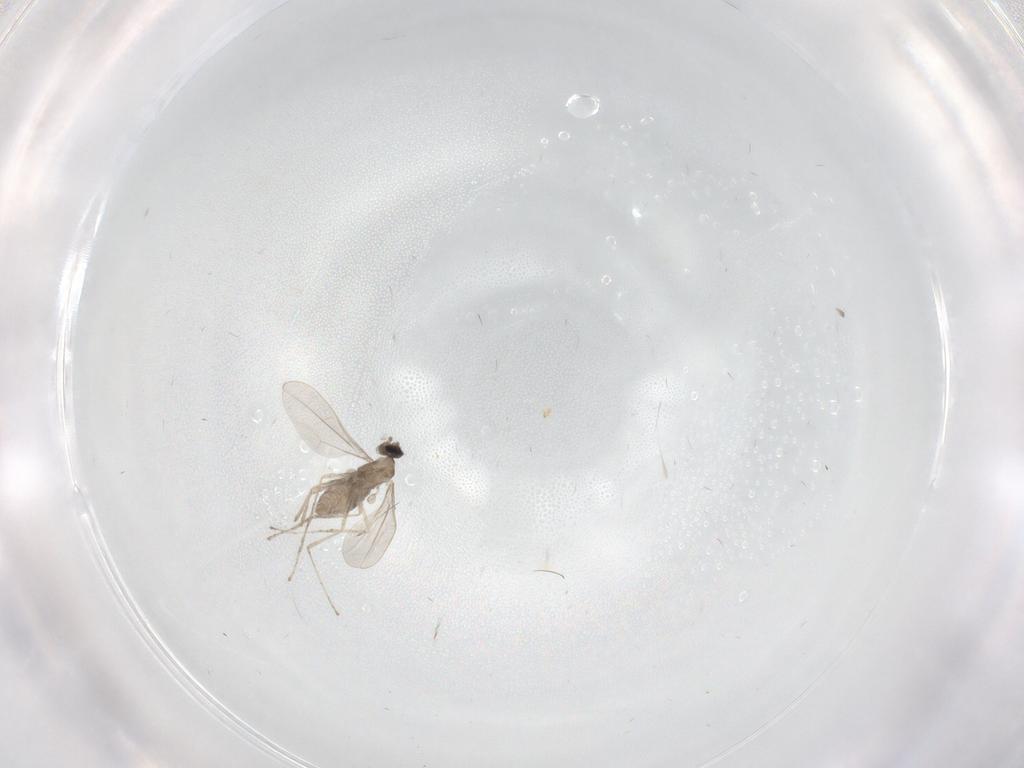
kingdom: Animalia
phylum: Arthropoda
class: Insecta
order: Diptera
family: Cecidomyiidae
